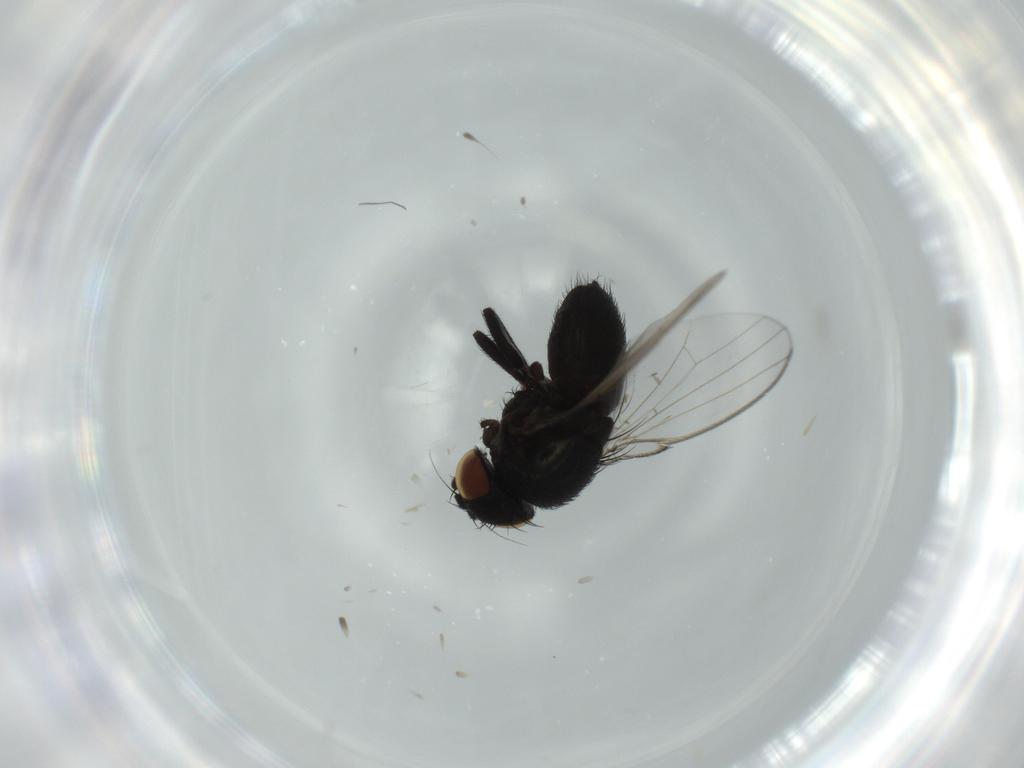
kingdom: Animalia
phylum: Arthropoda
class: Insecta
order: Diptera
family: Milichiidae
